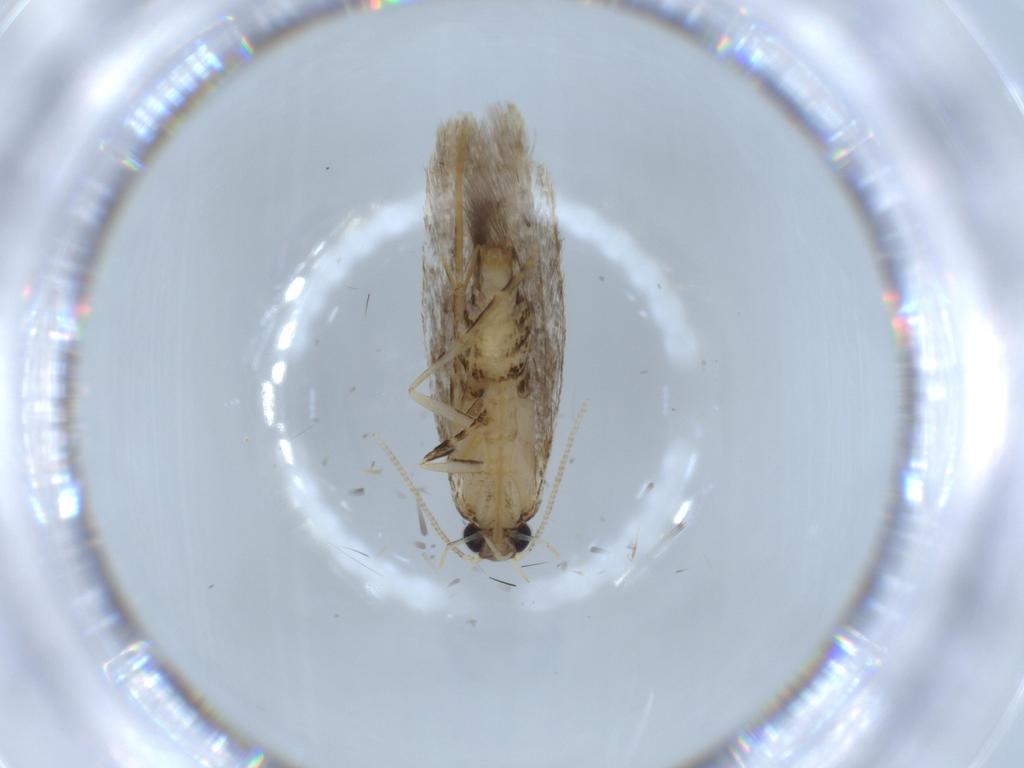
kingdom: Animalia
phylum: Arthropoda
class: Insecta
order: Lepidoptera
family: Tineidae
